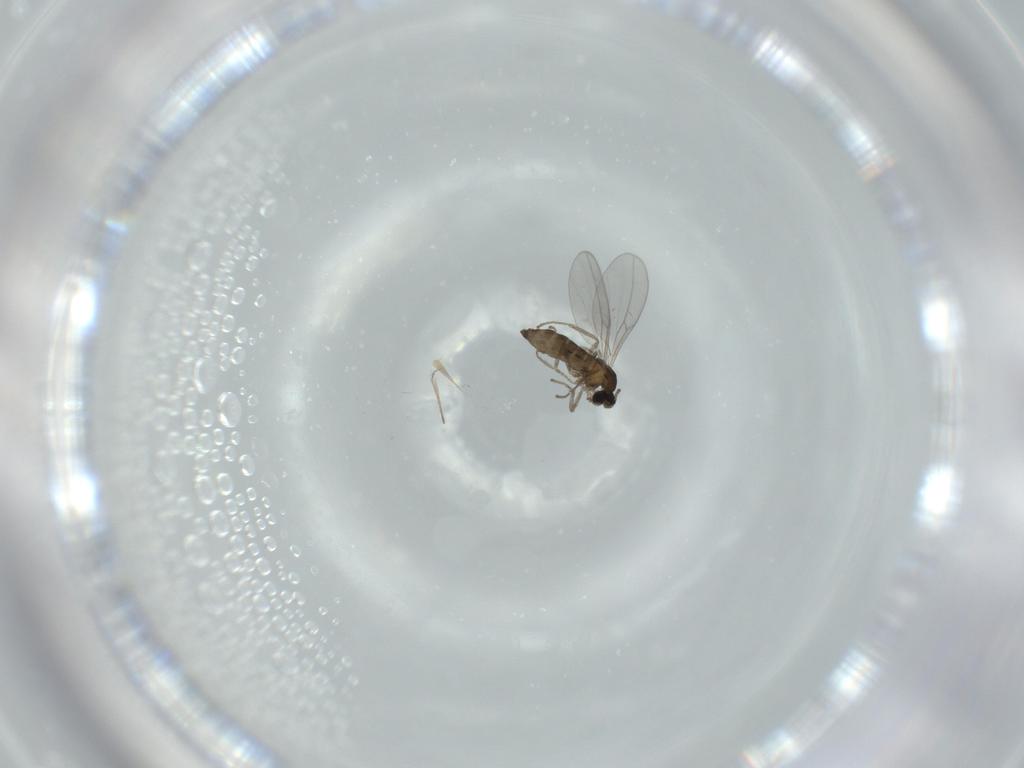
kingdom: Animalia
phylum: Arthropoda
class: Insecta
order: Diptera
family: Cecidomyiidae
